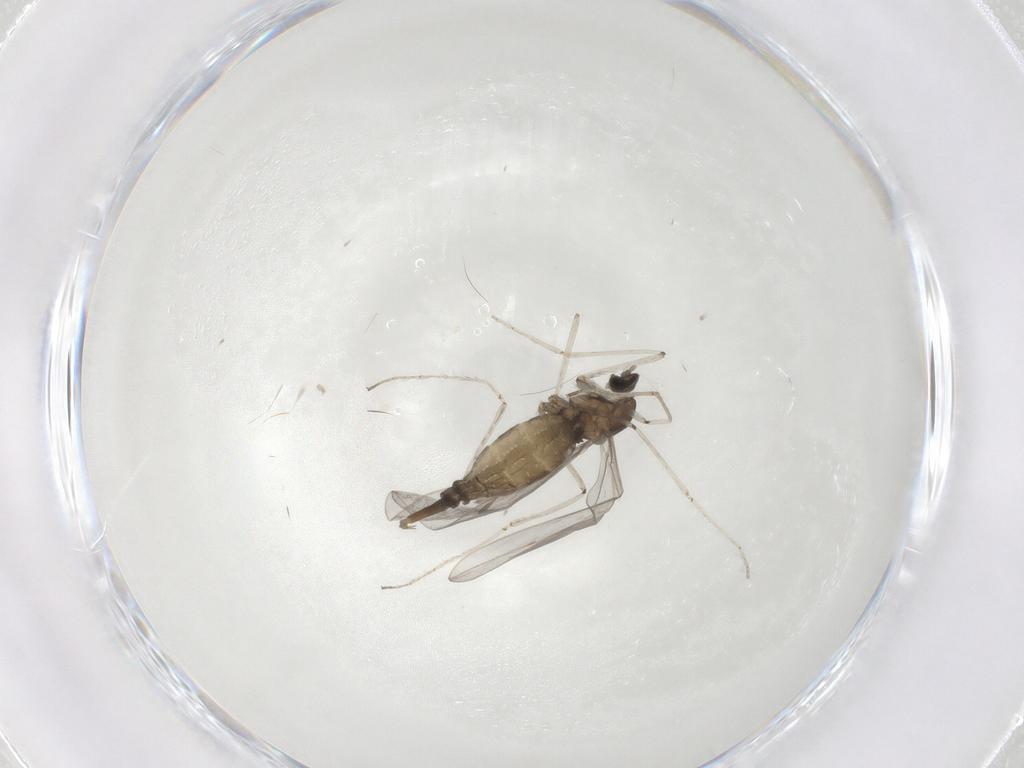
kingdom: Animalia
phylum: Arthropoda
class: Insecta
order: Diptera
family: Cecidomyiidae
